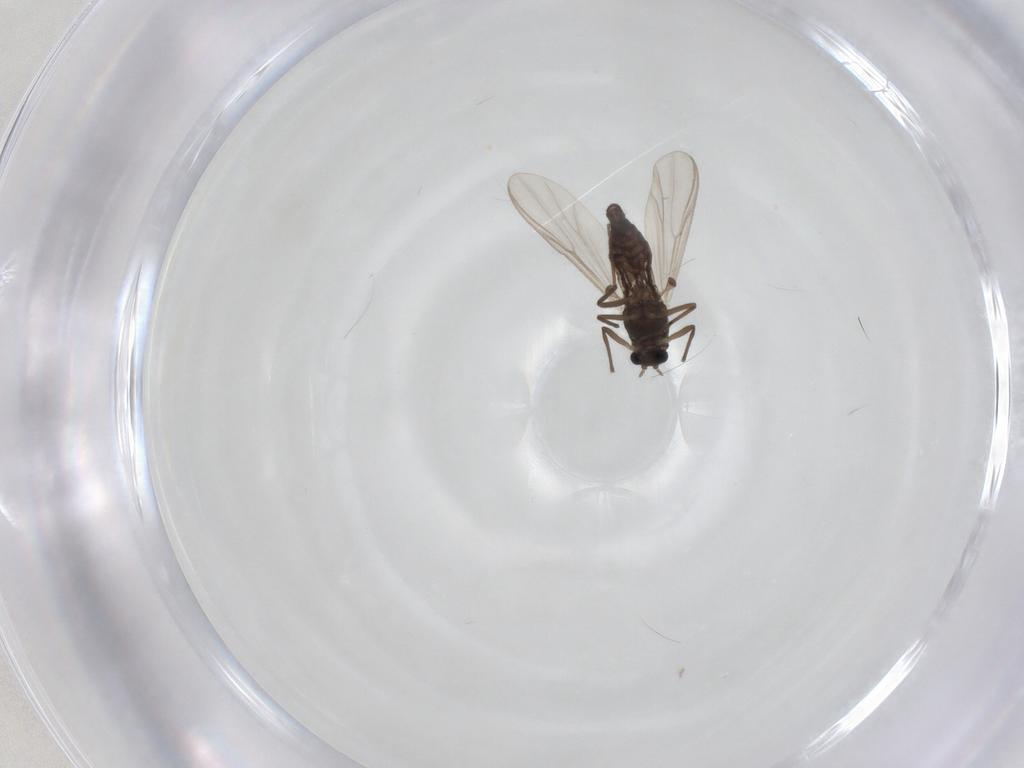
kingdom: Animalia
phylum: Arthropoda
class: Insecta
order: Diptera
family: Chironomidae
